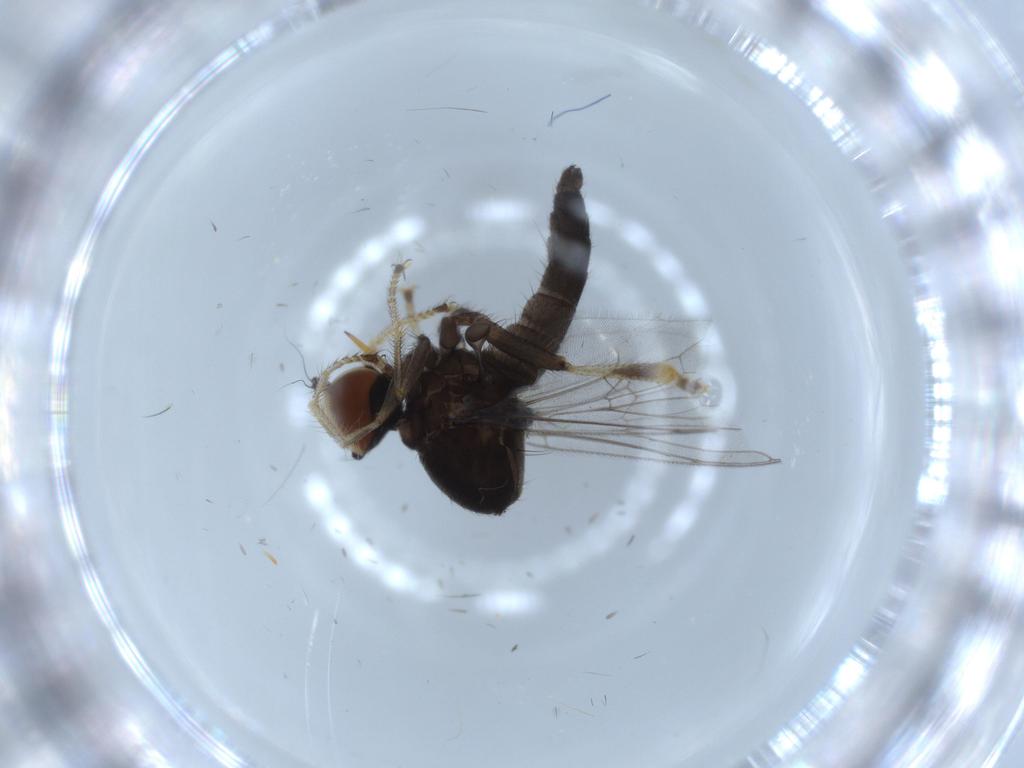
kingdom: Animalia
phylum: Arthropoda
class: Insecta
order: Diptera
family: Hybotidae
